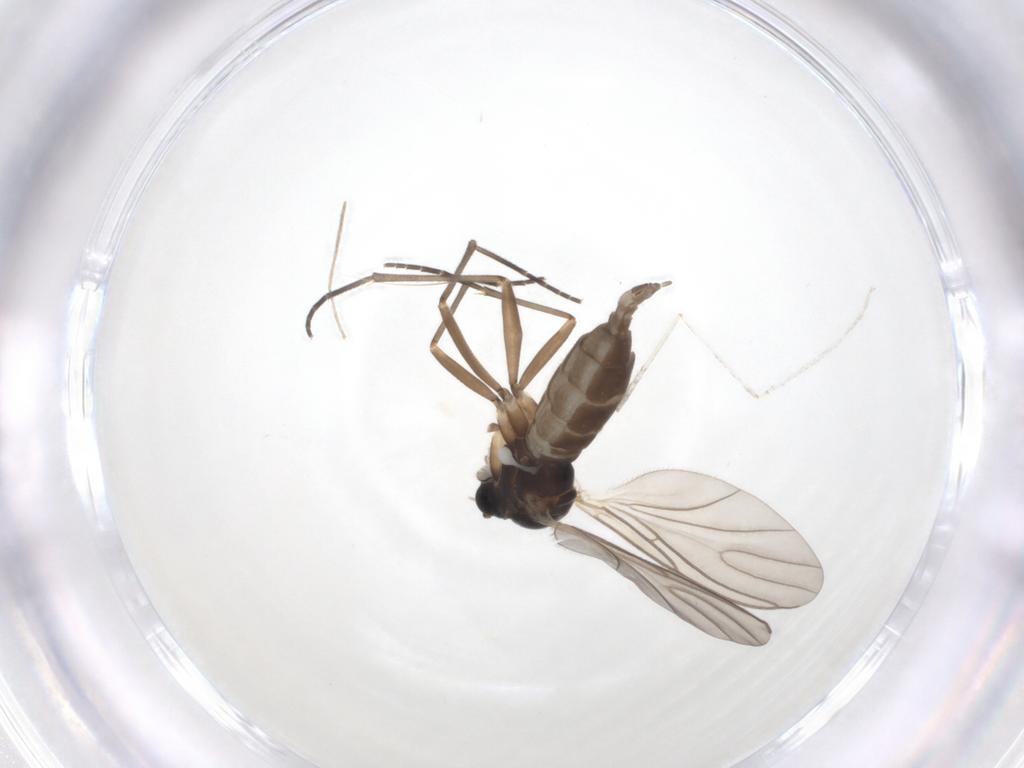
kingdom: Animalia
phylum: Arthropoda
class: Insecta
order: Diptera
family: Sciaridae
